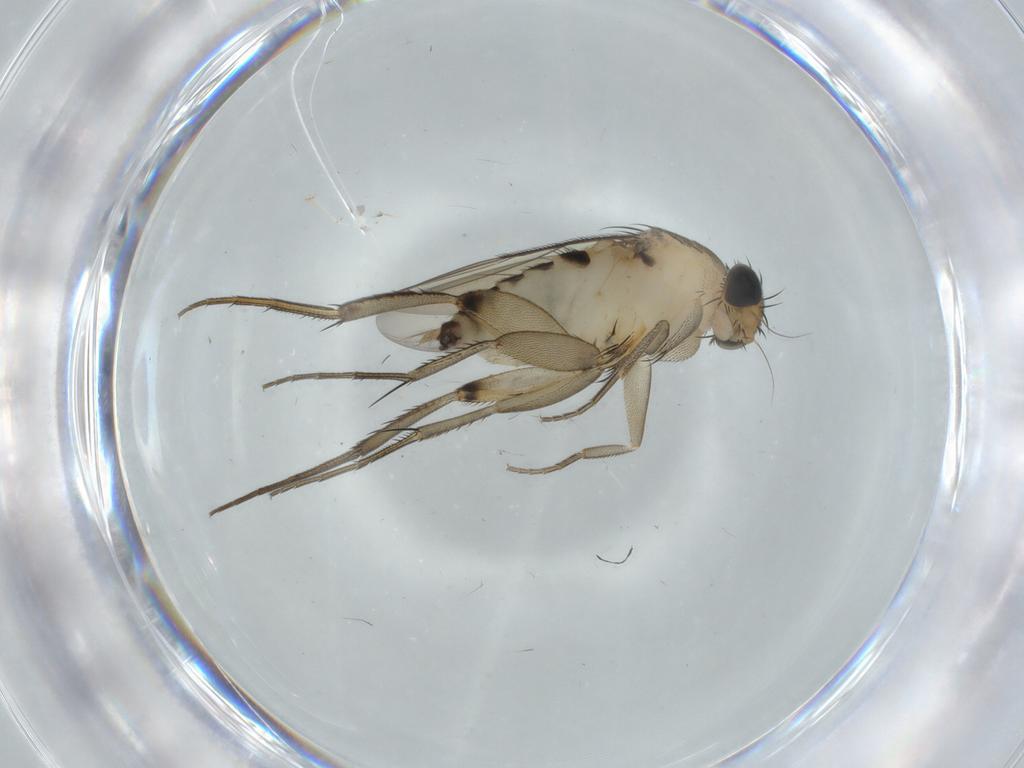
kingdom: Animalia
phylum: Arthropoda
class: Insecta
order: Diptera
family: Phoridae
